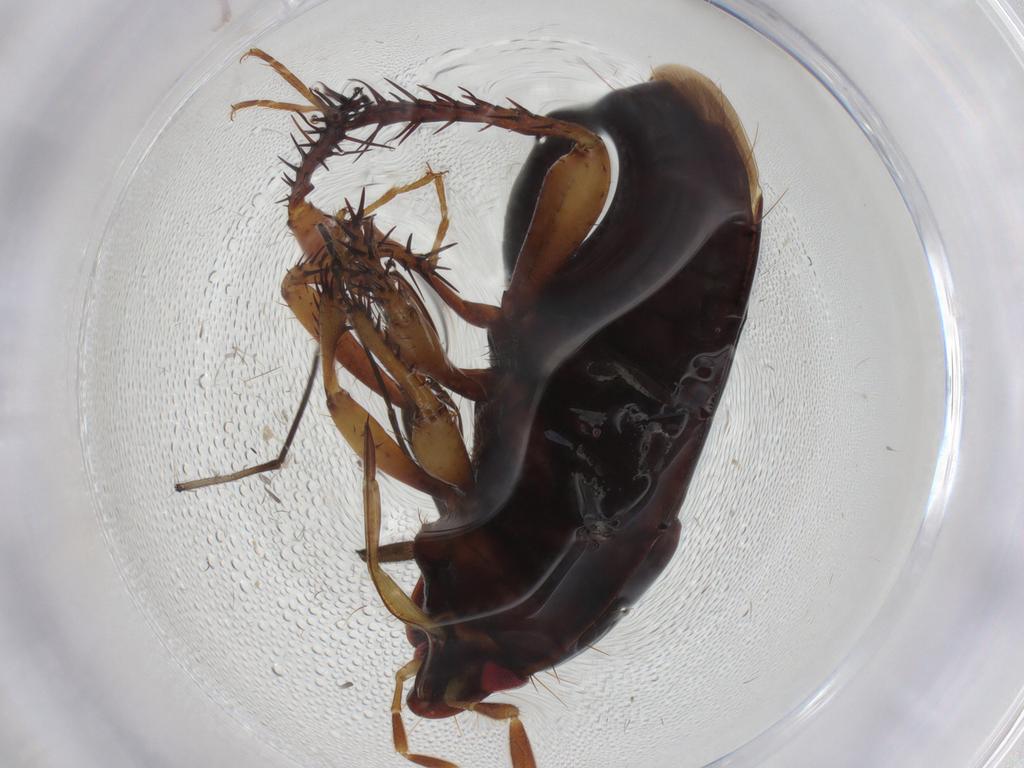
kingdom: Animalia
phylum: Arthropoda
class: Insecta
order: Hemiptera
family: Cydnidae
